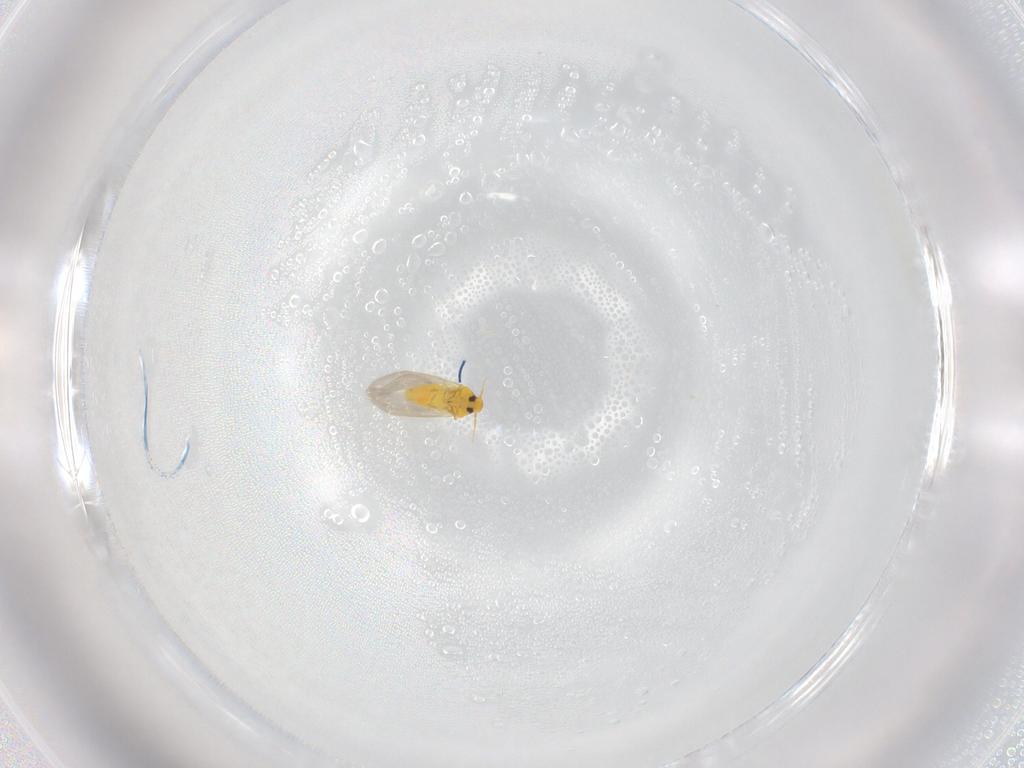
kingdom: Animalia
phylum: Arthropoda
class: Insecta
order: Hemiptera
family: Aleyrodidae
